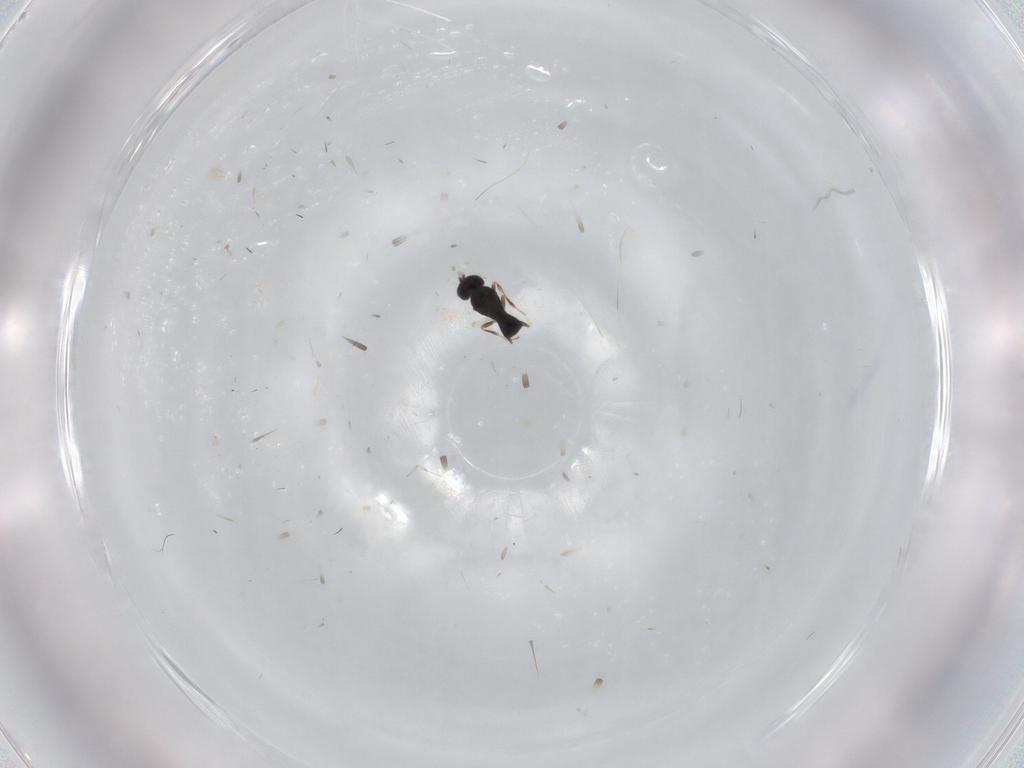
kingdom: Animalia
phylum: Arthropoda
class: Insecta
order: Hymenoptera
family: Scelionidae
